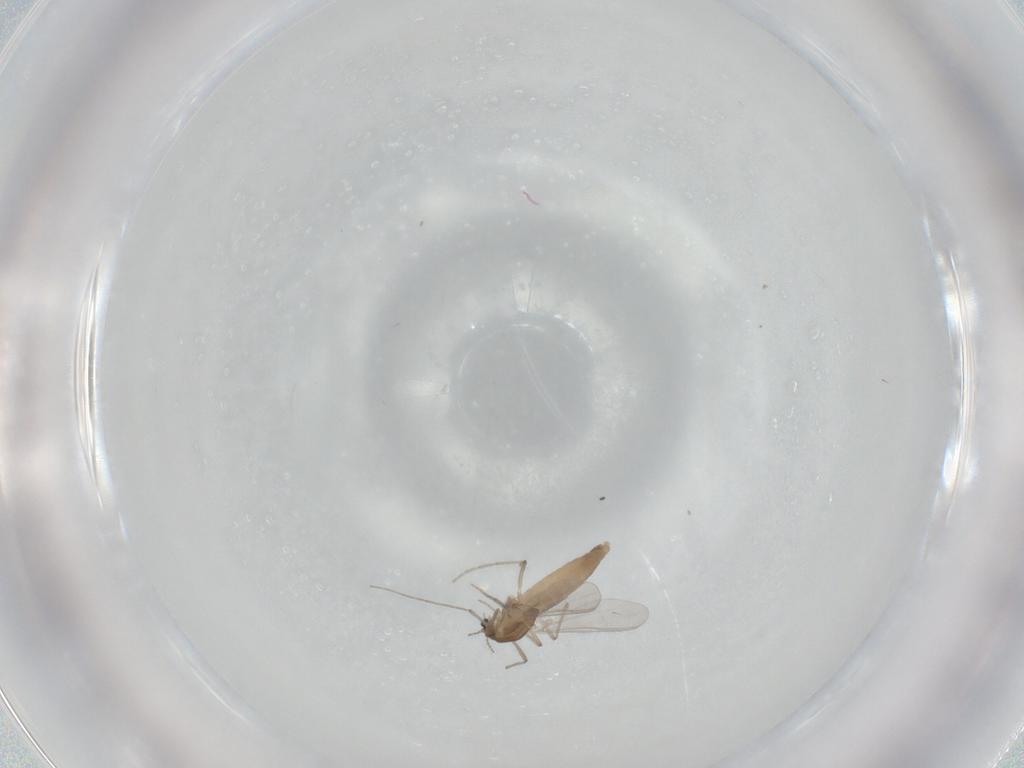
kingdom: Animalia
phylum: Arthropoda
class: Insecta
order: Diptera
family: Chironomidae
